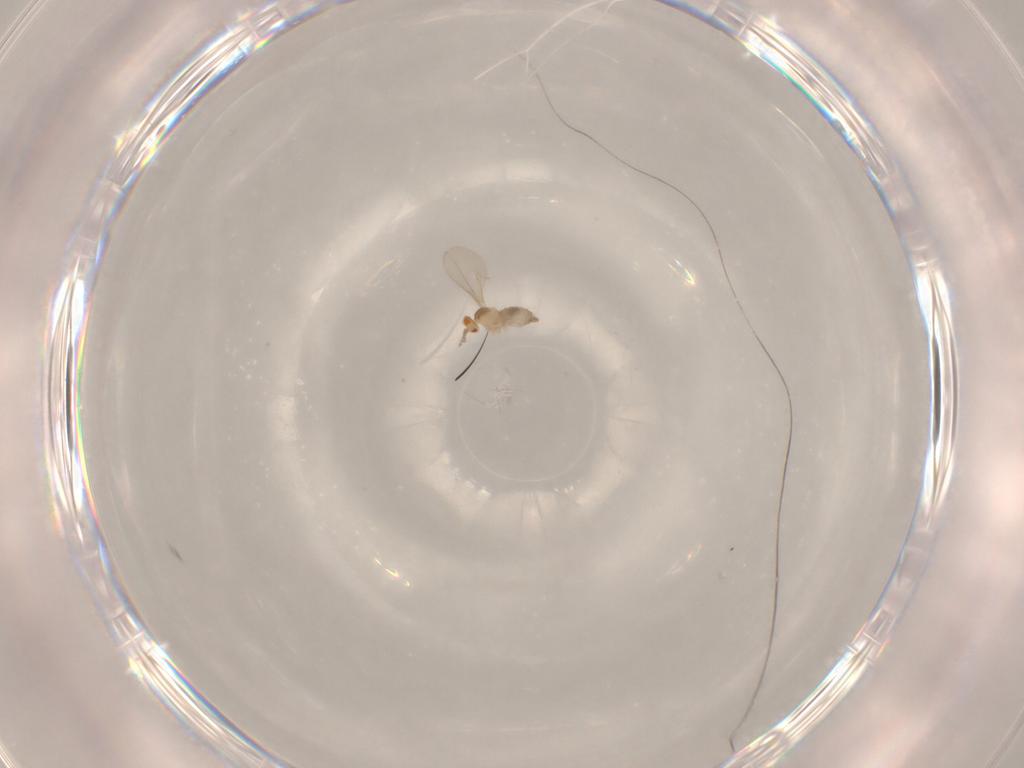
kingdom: Animalia
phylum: Arthropoda
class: Insecta
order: Diptera
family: Cecidomyiidae
